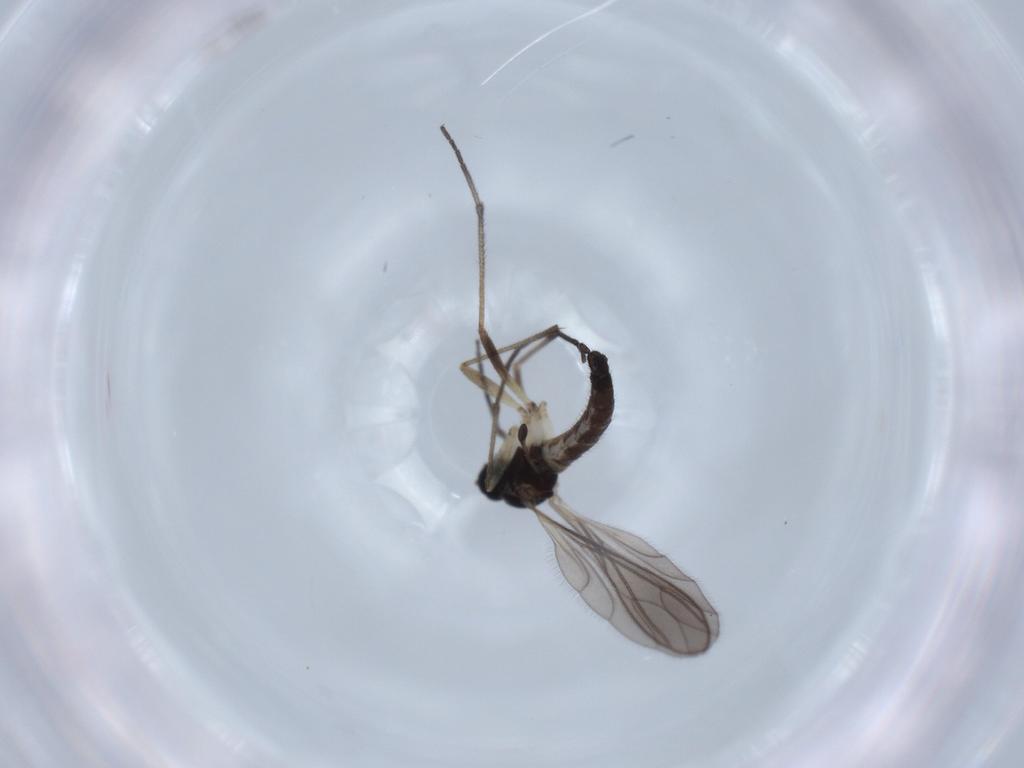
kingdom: Animalia
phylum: Arthropoda
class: Insecta
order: Diptera
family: Chironomidae
